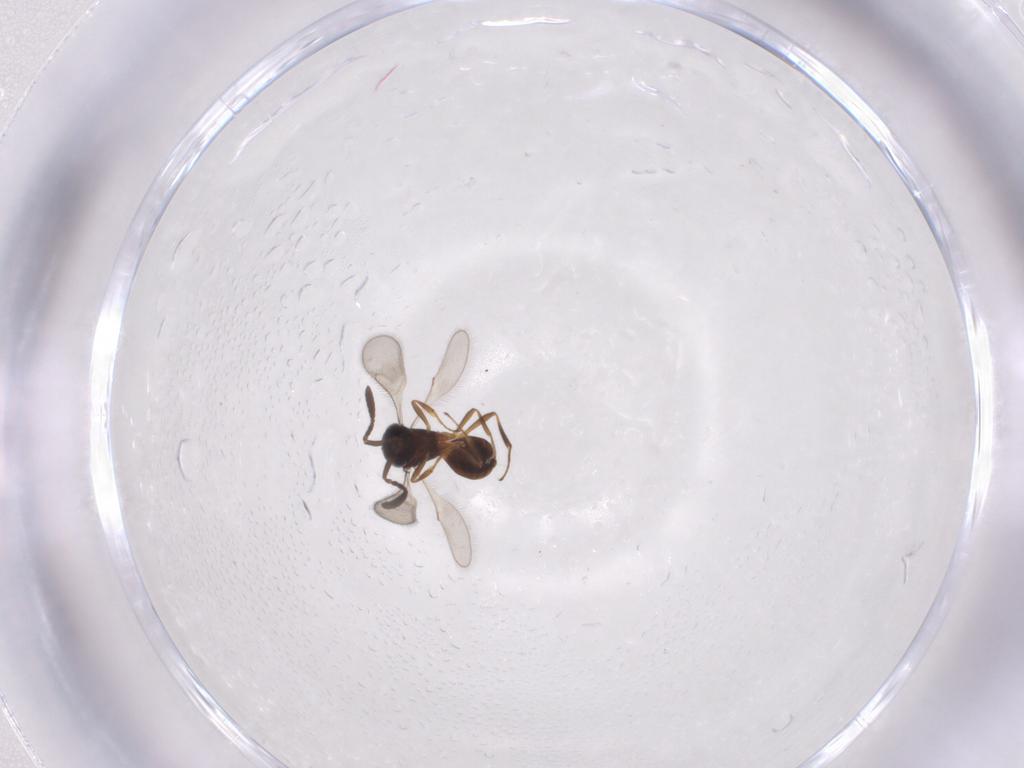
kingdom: Animalia
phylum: Arthropoda
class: Insecta
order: Hymenoptera
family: Scelionidae
